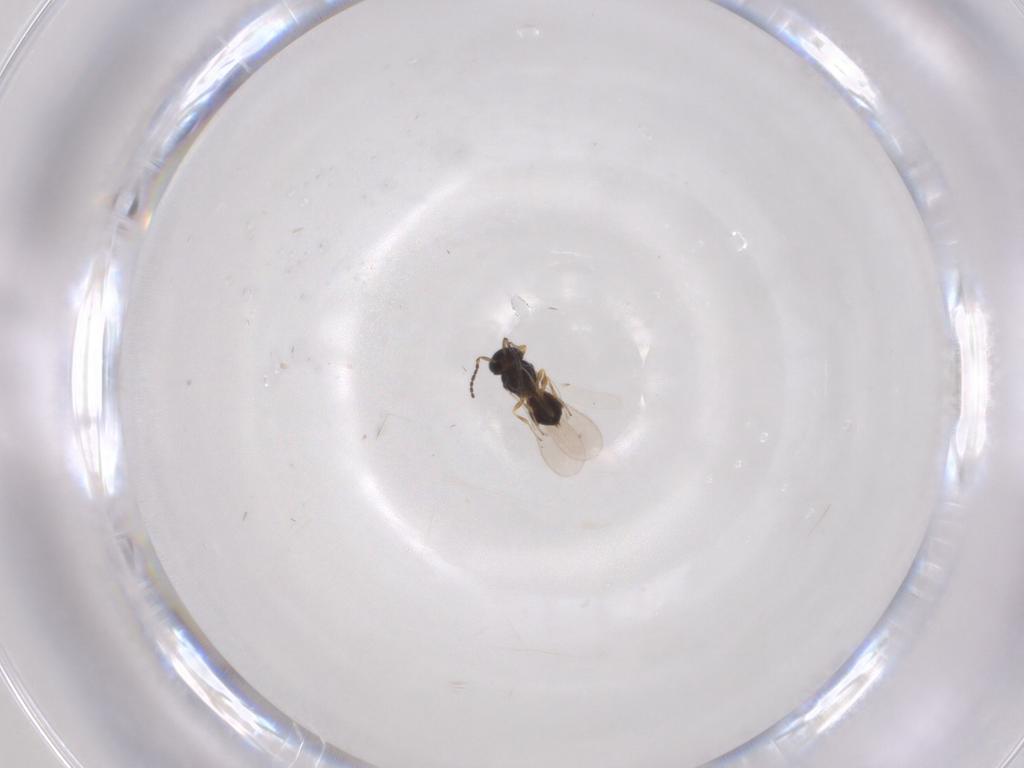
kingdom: Animalia
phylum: Arthropoda
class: Insecta
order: Hymenoptera
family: Scelionidae
